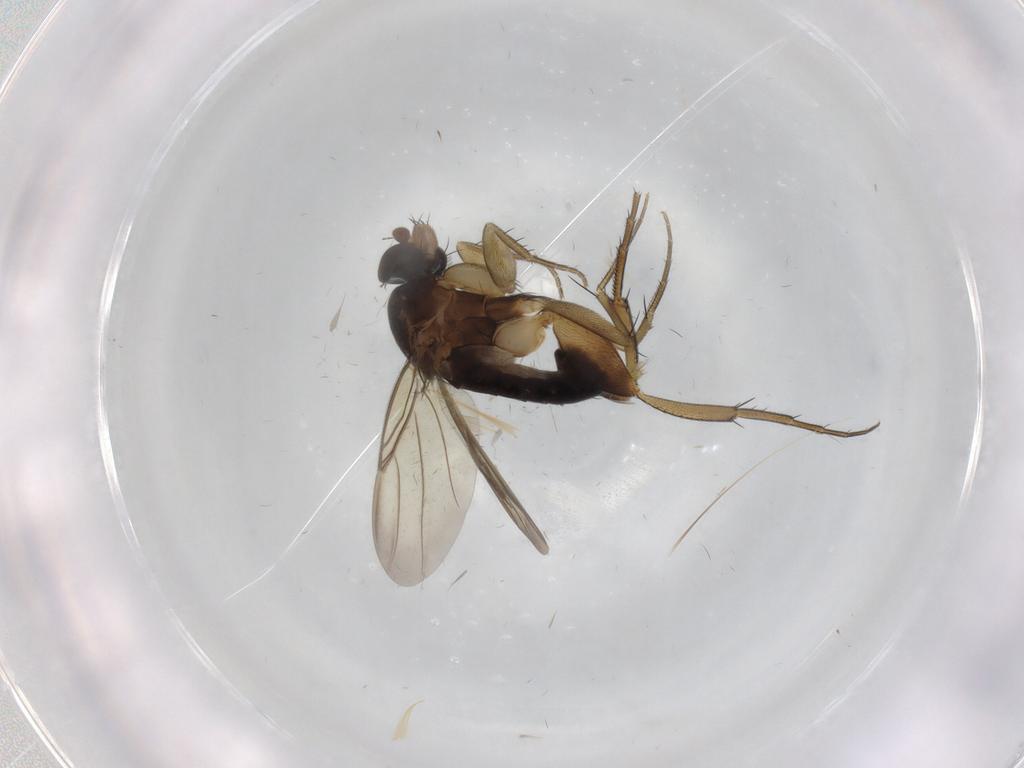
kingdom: Animalia
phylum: Arthropoda
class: Insecta
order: Diptera
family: Phoridae
